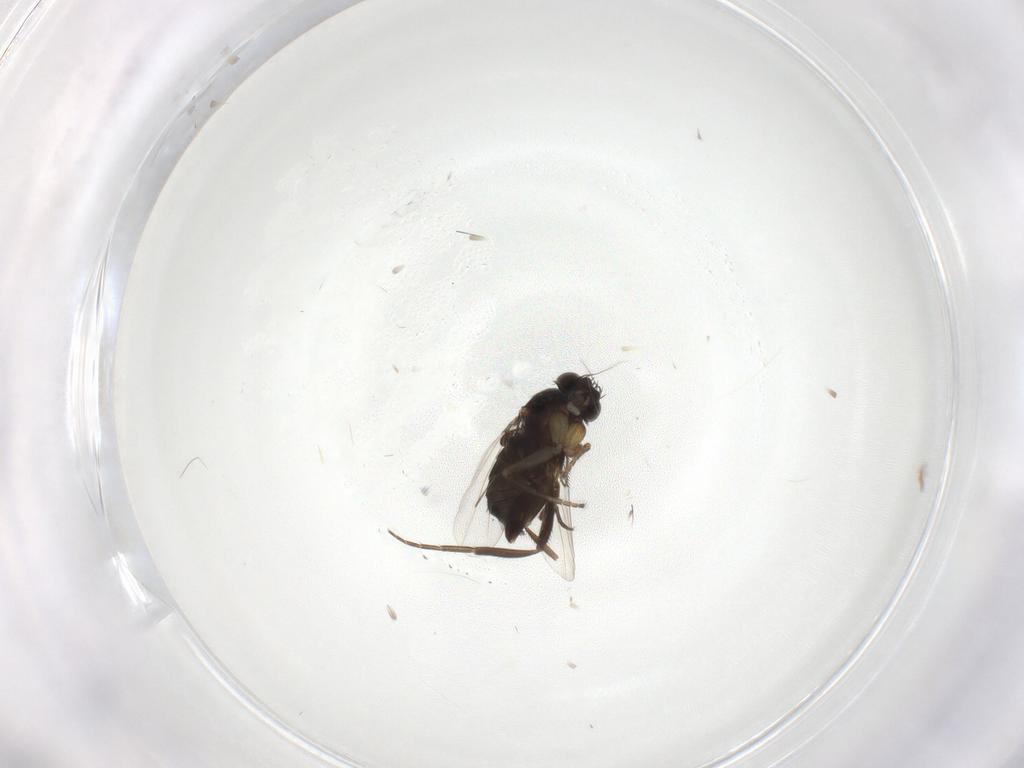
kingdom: Animalia
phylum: Arthropoda
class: Insecta
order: Diptera
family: Phoridae
